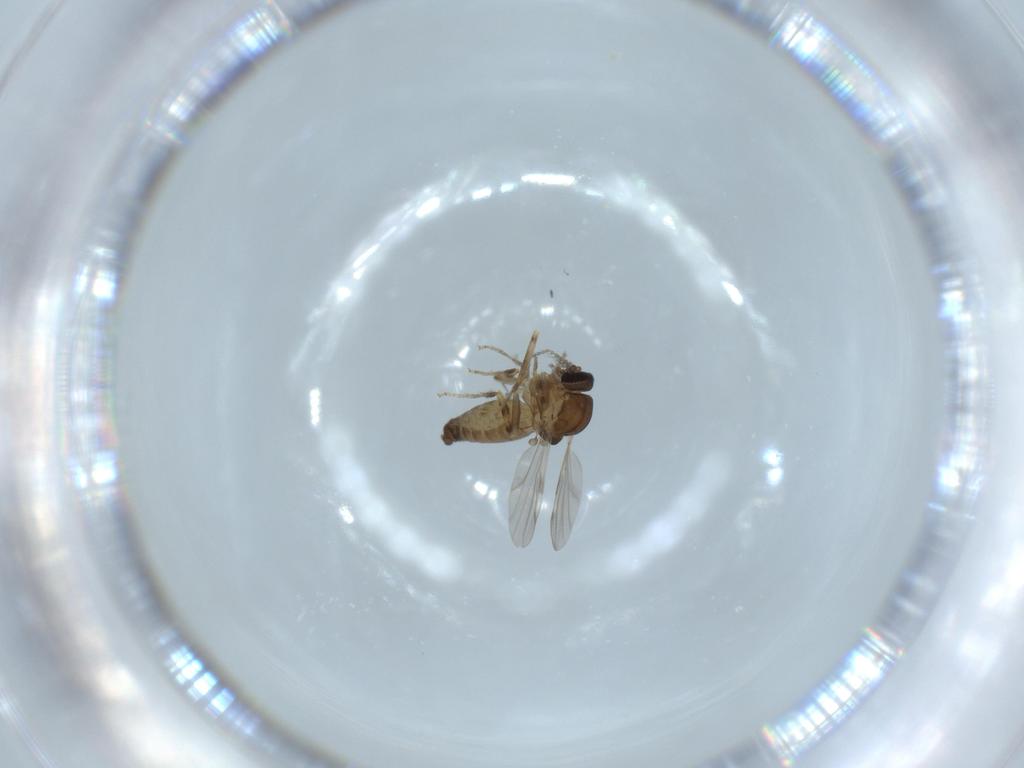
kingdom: Animalia
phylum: Arthropoda
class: Insecta
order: Diptera
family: Ceratopogonidae
